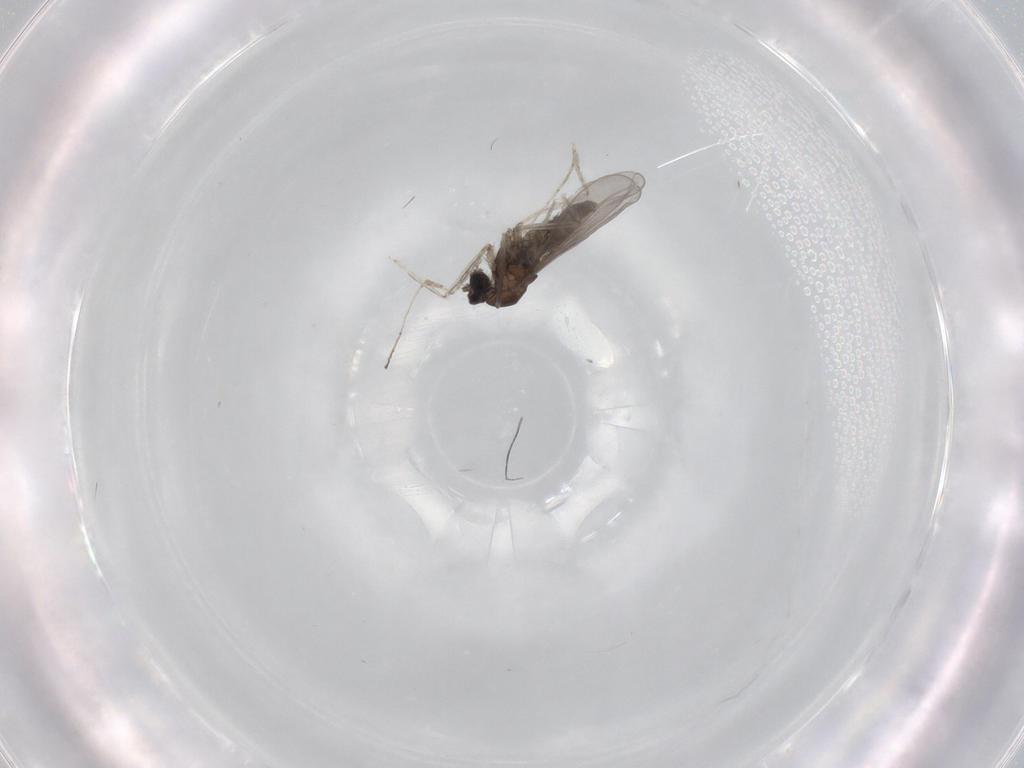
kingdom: Animalia
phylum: Arthropoda
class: Insecta
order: Diptera
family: Cecidomyiidae
